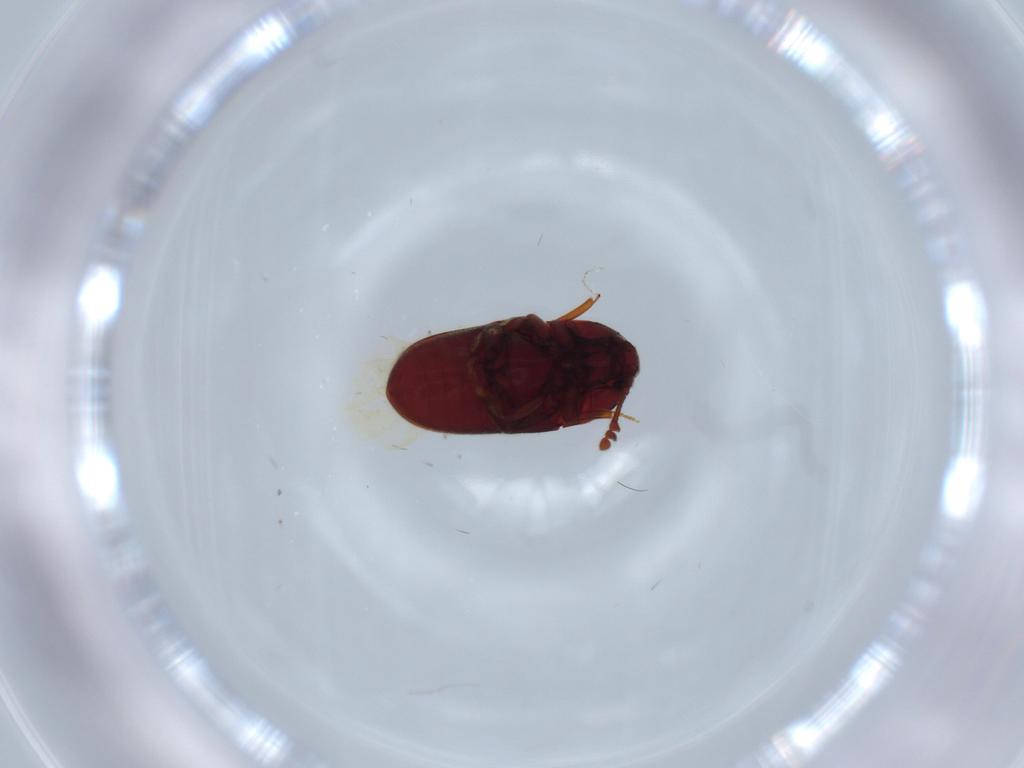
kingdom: Animalia
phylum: Arthropoda
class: Insecta
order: Coleoptera
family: Throscidae
